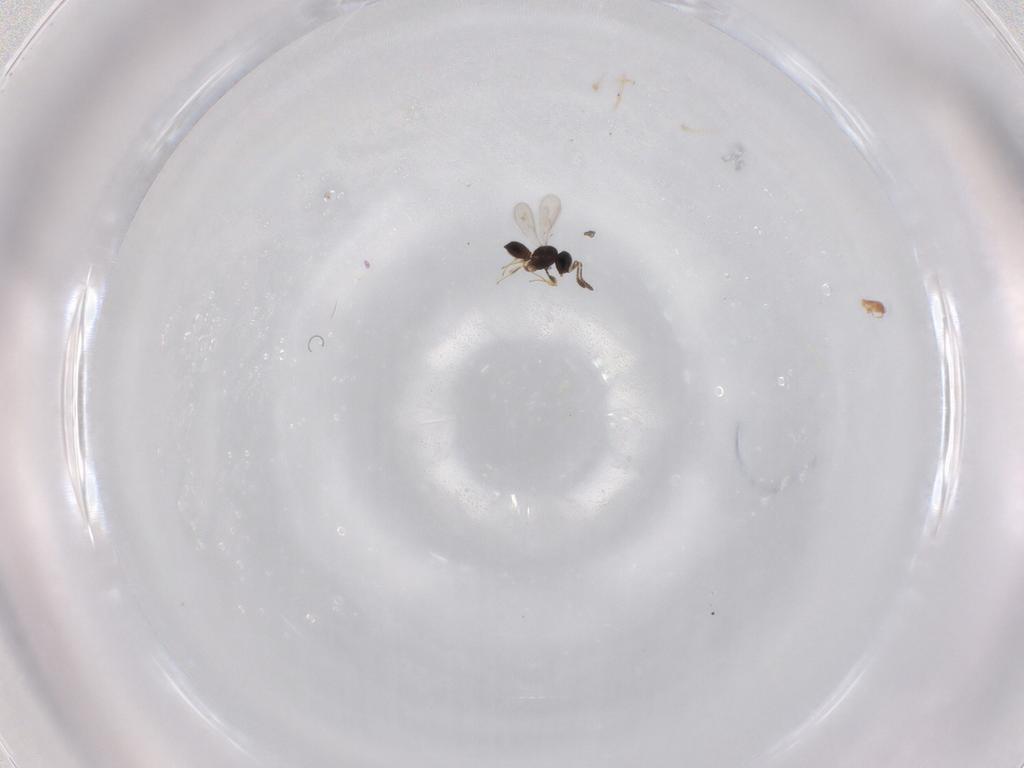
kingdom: Animalia
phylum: Arthropoda
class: Insecta
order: Hymenoptera
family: Scelionidae
